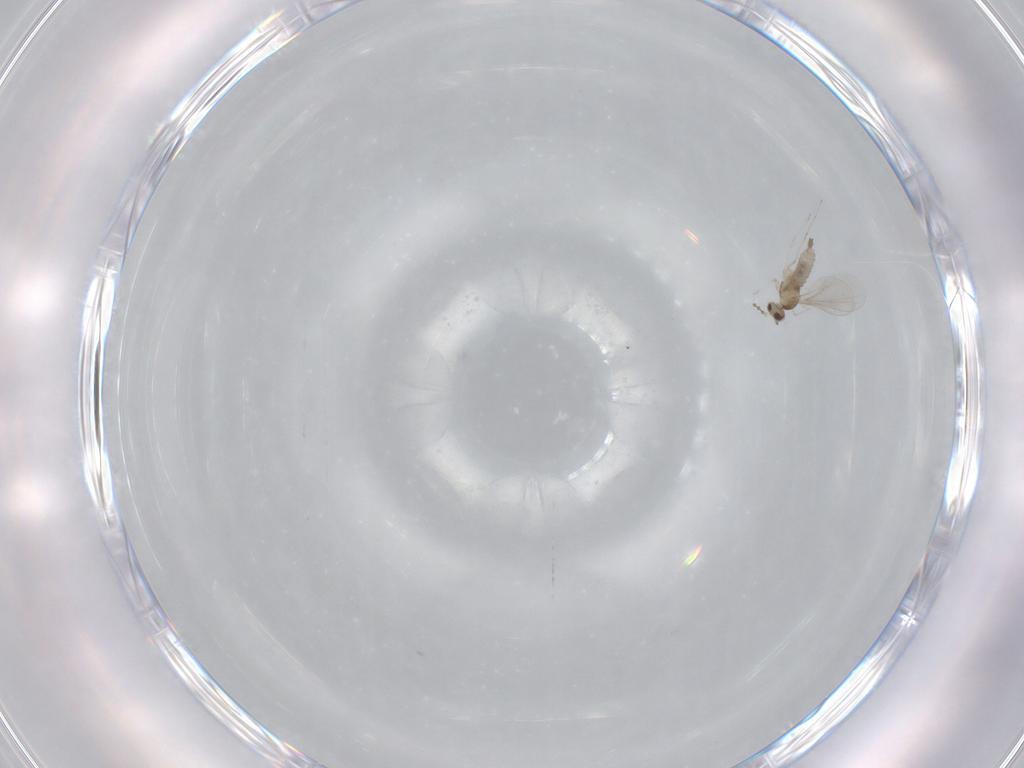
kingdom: Animalia
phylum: Arthropoda
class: Insecta
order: Diptera
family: Cecidomyiidae
